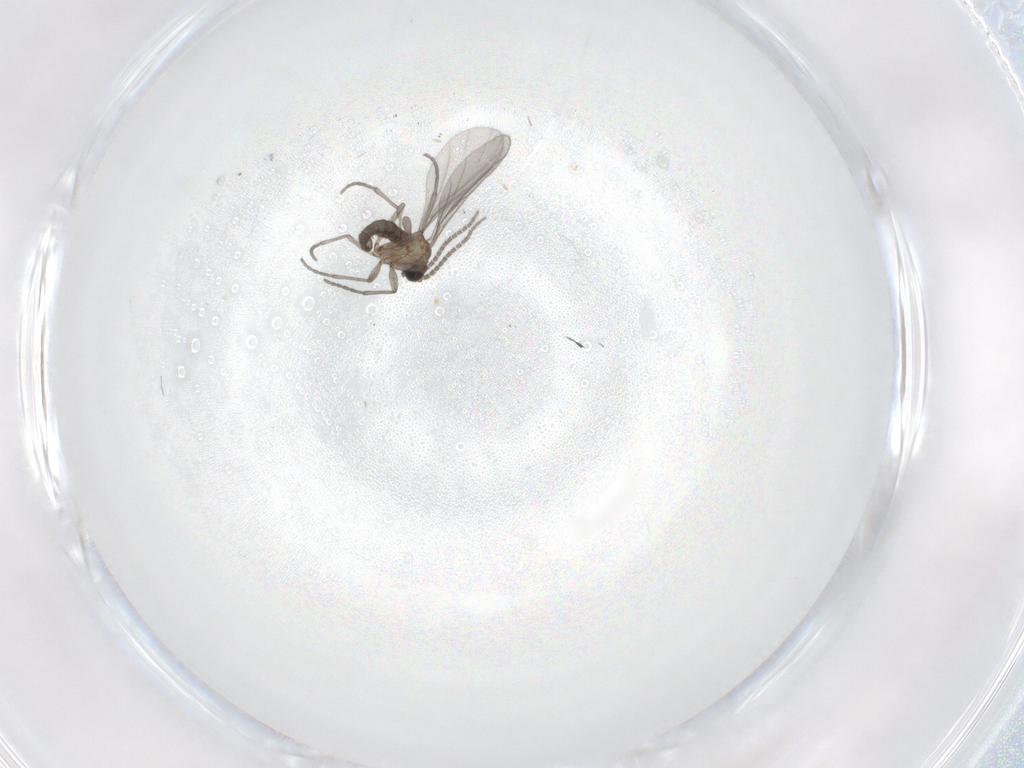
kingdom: Animalia
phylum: Arthropoda
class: Insecta
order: Diptera
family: Sciaridae
